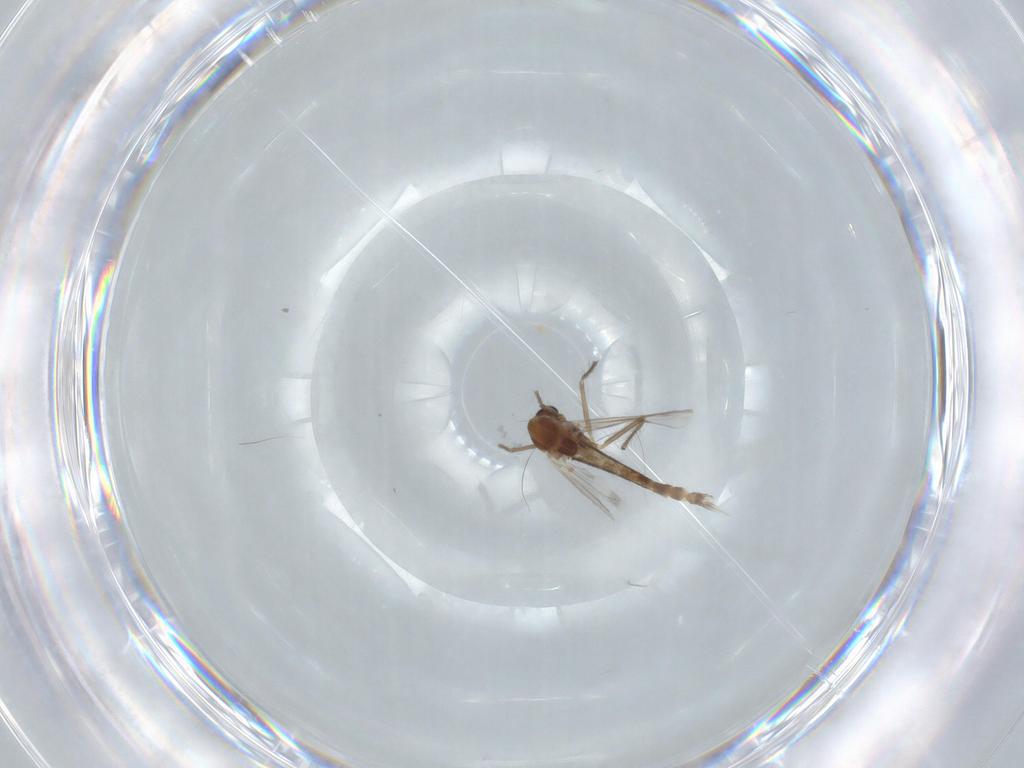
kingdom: Animalia
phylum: Arthropoda
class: Insecta
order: Diptera
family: Chironomidae
